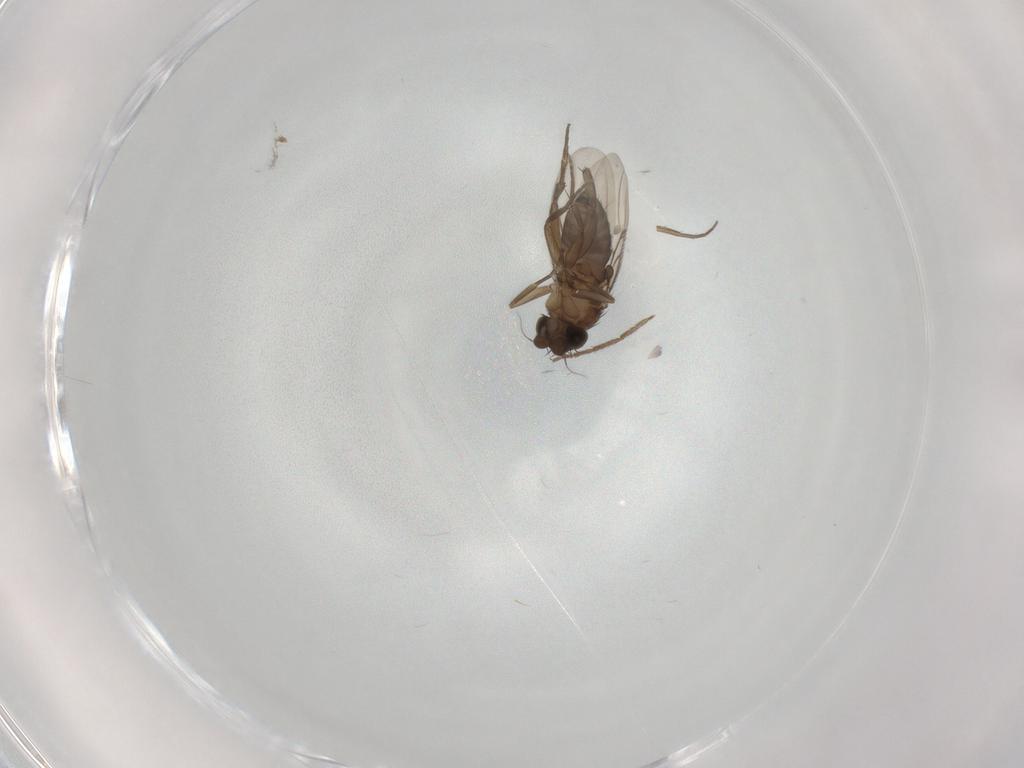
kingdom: Animalia
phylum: Arthropoda
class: Insecta
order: Diptera
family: Phoridae
